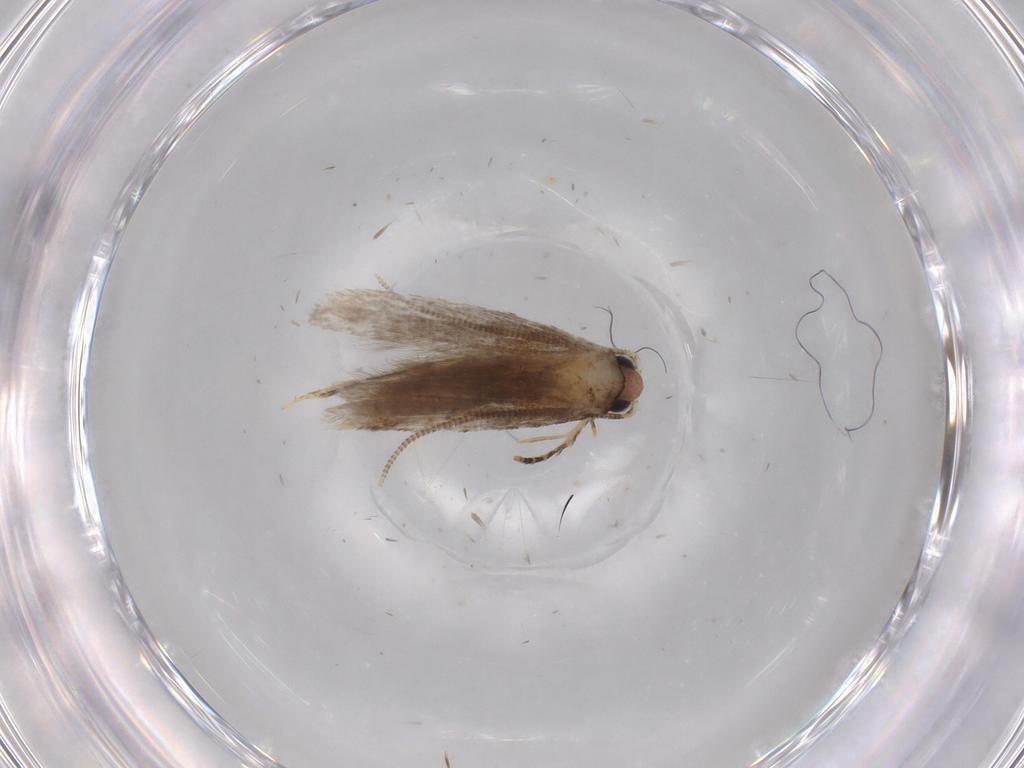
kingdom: Animalia
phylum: Arthropoda
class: Insecta
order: Lepidoptera
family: Tineidae
